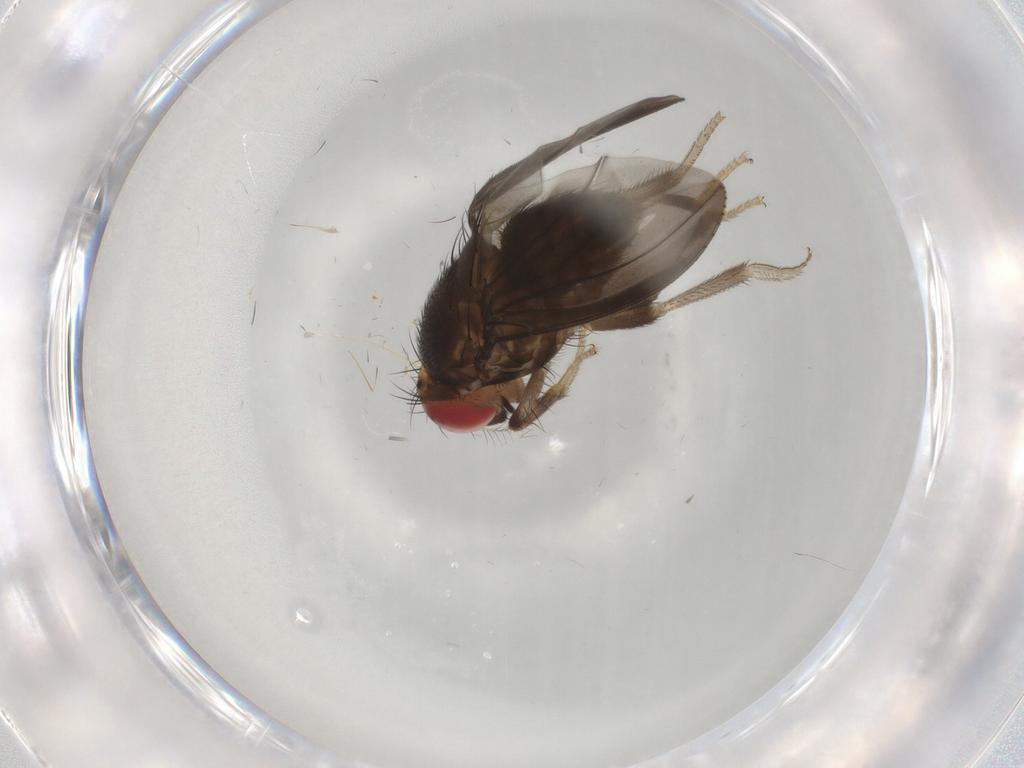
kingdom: Animalia
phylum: Arthropoda
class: Insecta
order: Diptera
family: Drosophilidae
